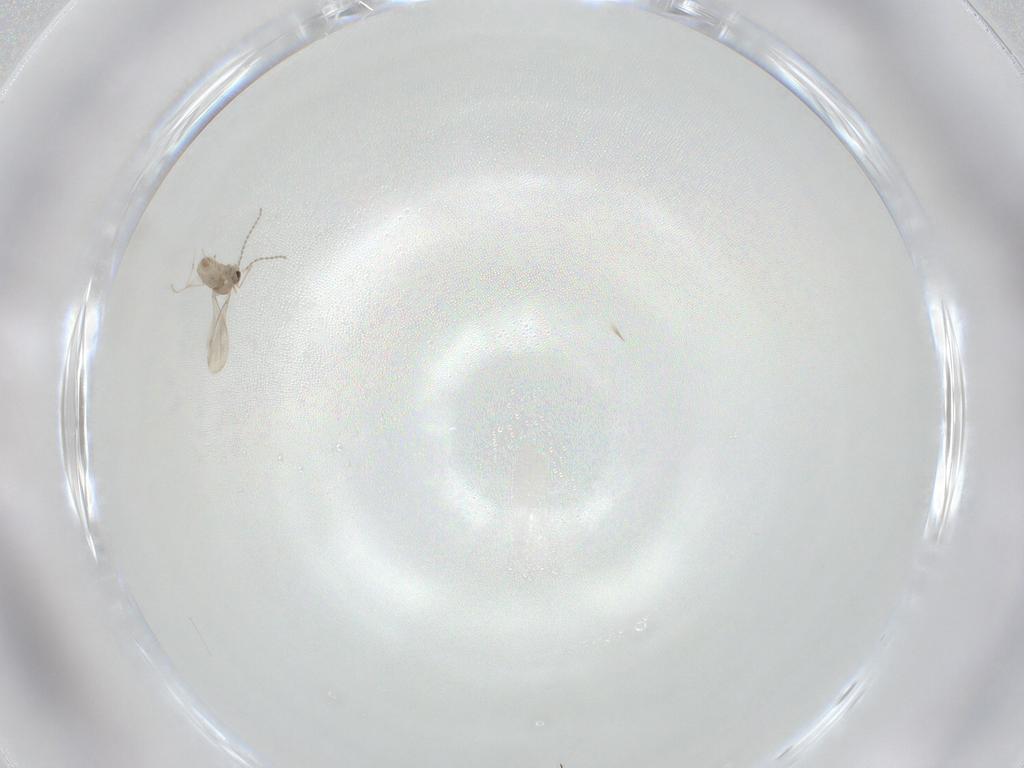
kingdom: Animalia
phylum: Arthropoda
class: Insecta
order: Diptera
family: Cecidomyiidae
